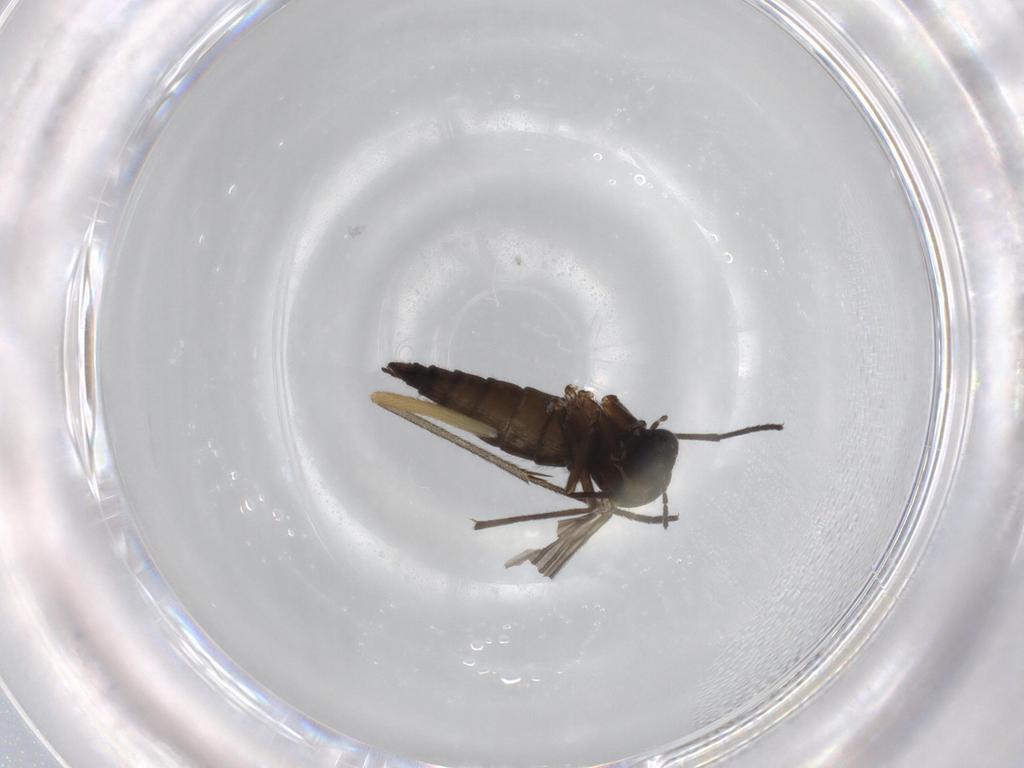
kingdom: Animalia
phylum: Arthropoda
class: Insecta
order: Diptera
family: Sciaridae
